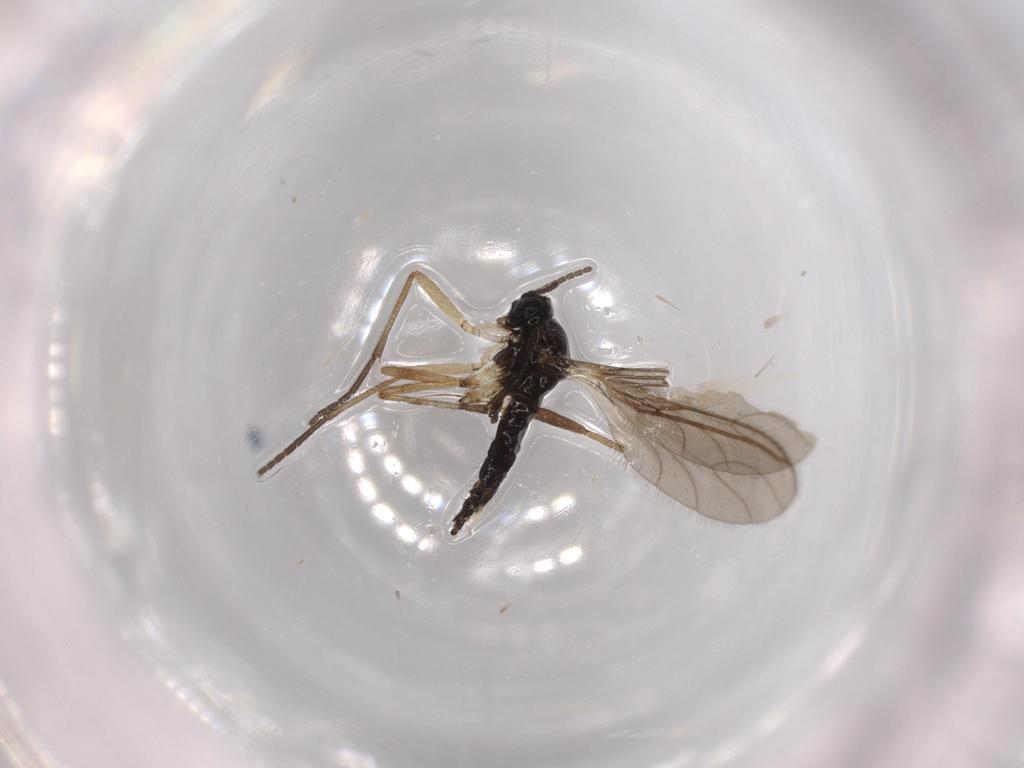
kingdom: Animalia
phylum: Arthropoda
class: Insecta
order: Diptera
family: Sciaridae
